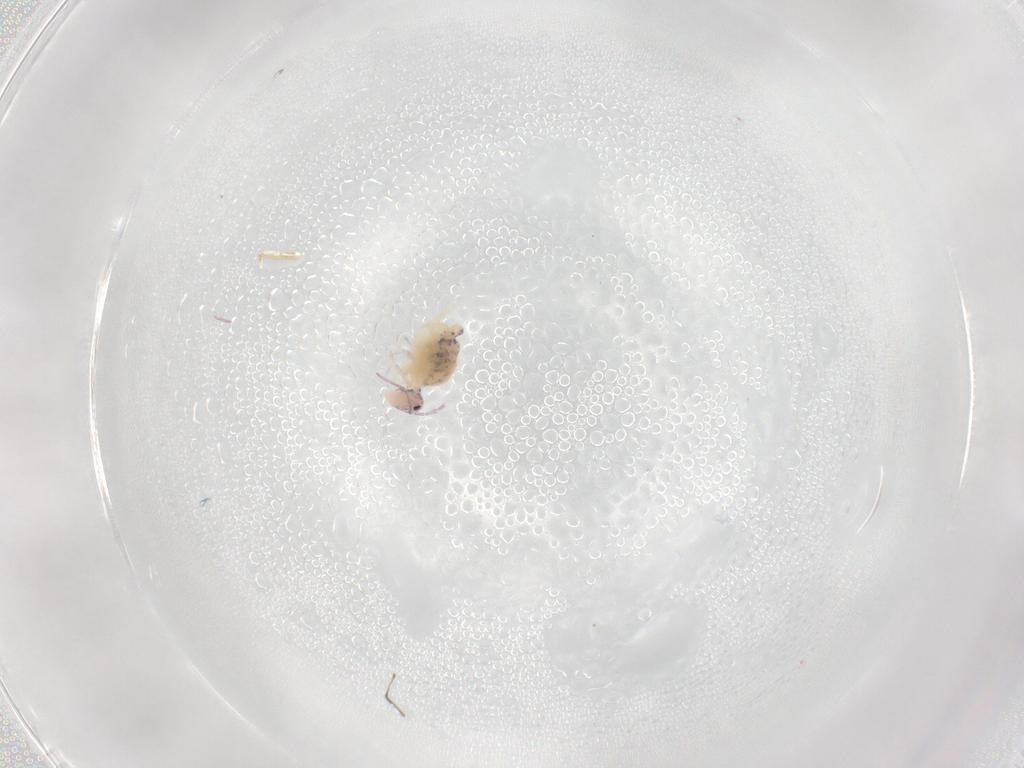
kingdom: Animalia
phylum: Arthropoda
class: Collembola
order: Symphypleona
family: Bourletiellidae
